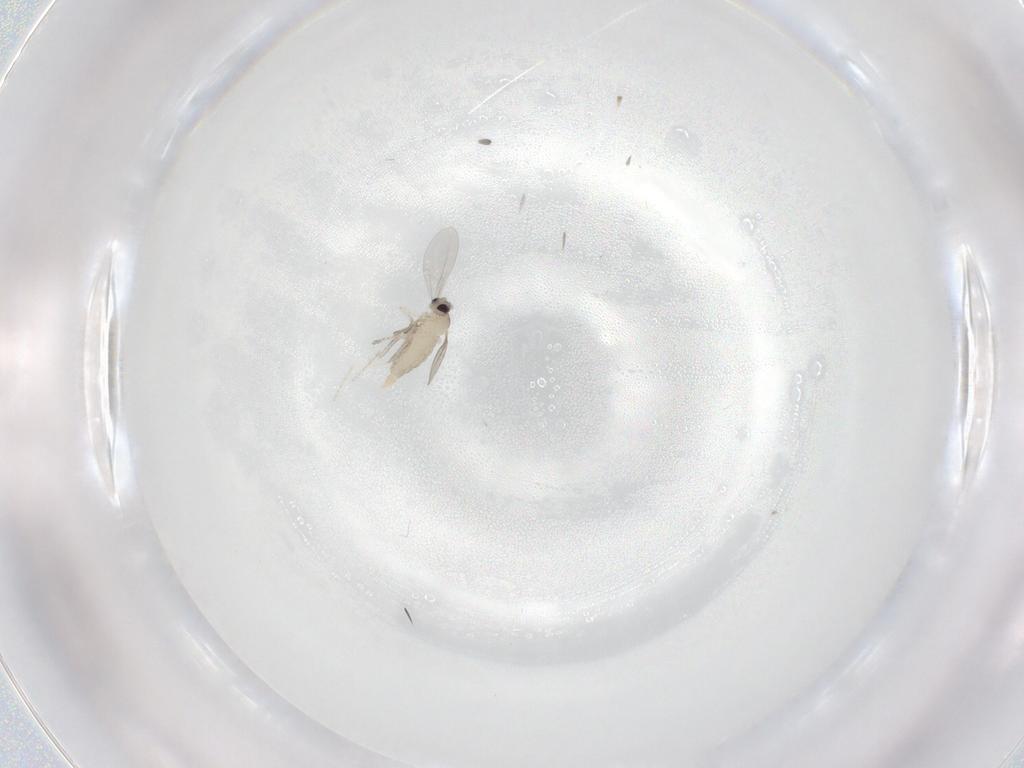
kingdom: Animalia
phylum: Arthropoda
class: Insecta
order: Diptera
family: Cecidomyiidae
